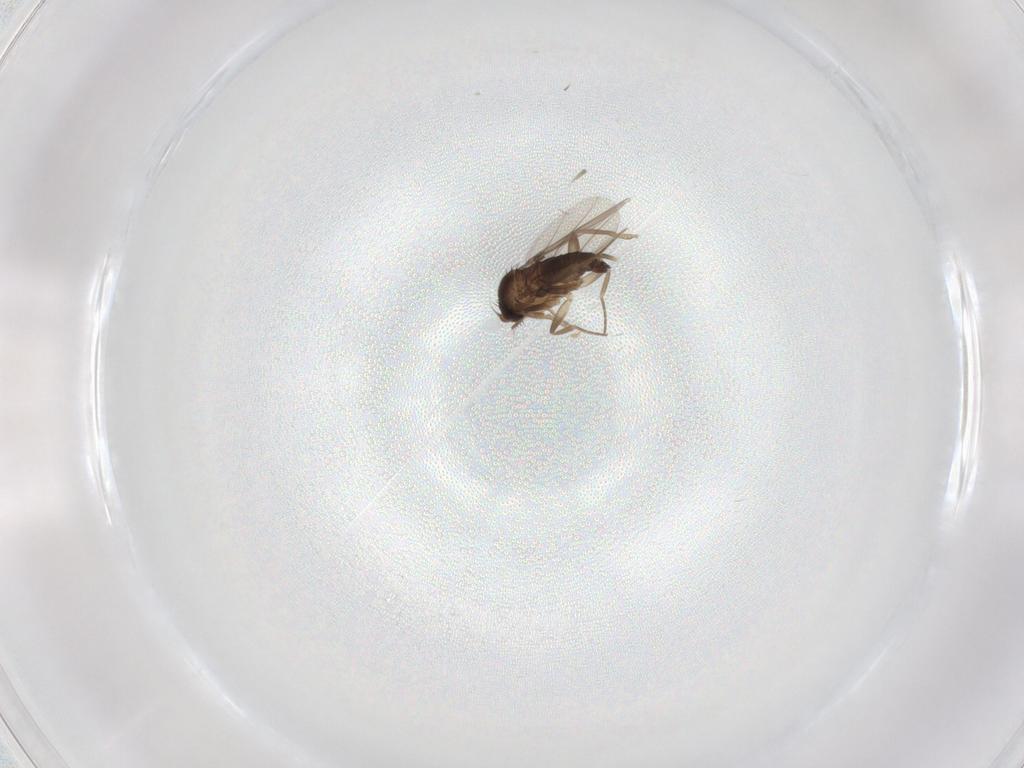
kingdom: Animalia
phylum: Arthropoda
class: Insecta
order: Diptera
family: Phoridae
